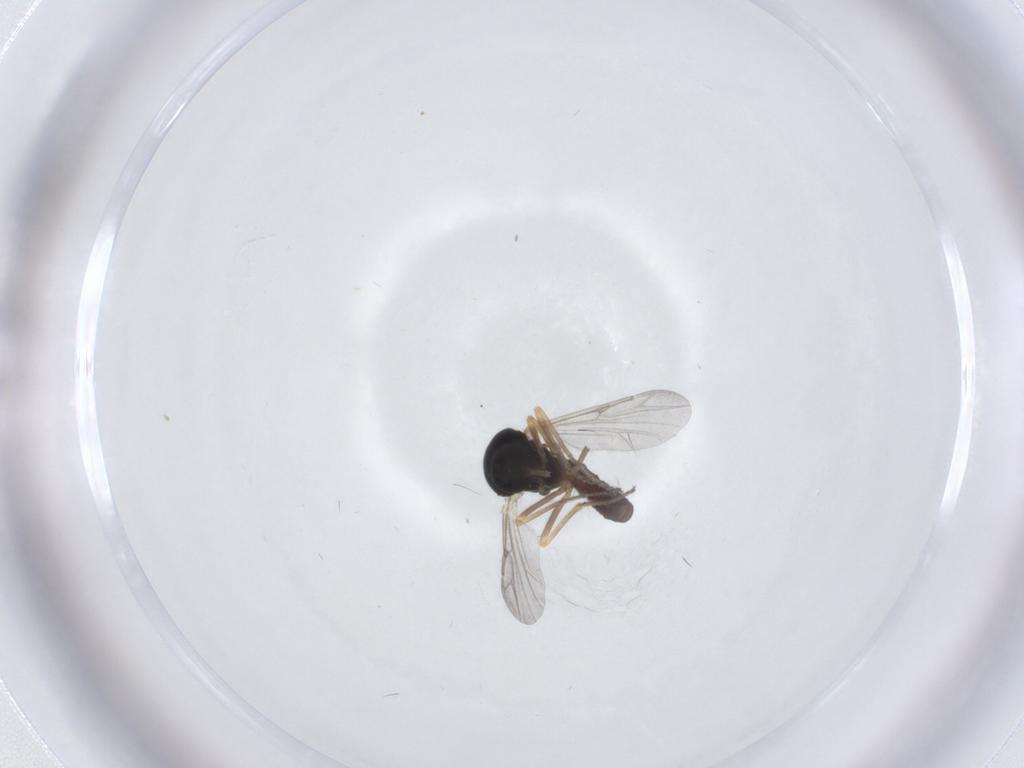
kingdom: Animalia
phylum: Arthropoda
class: Insecta
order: Diptera
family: Ceratopogonidae
